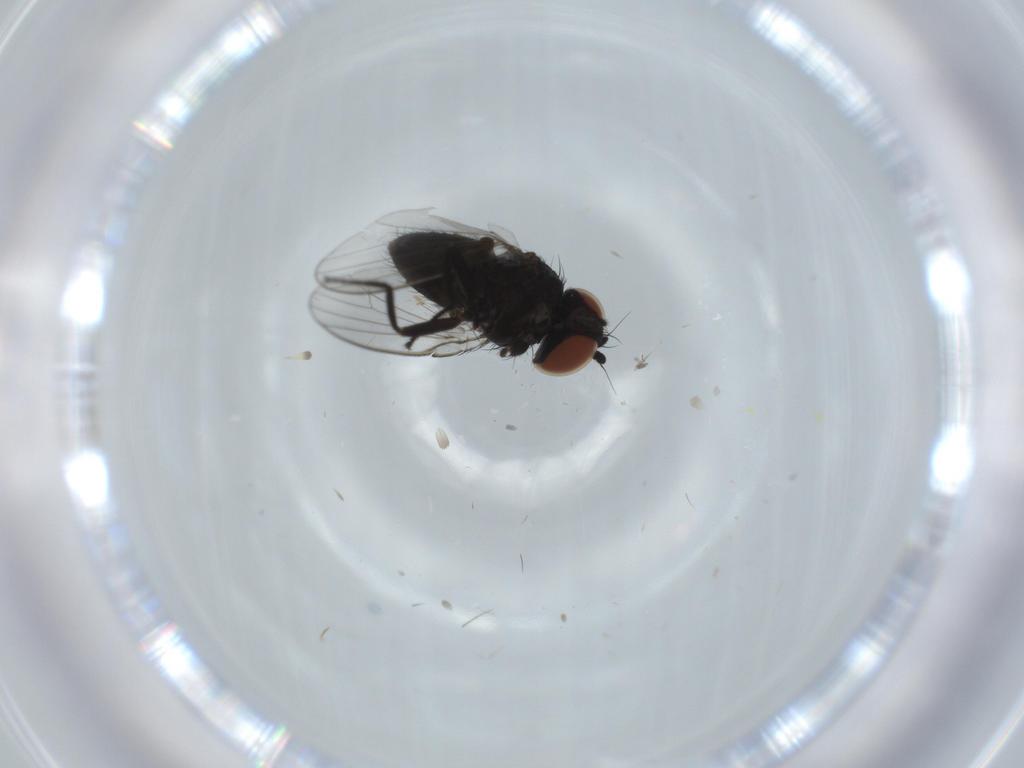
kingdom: Animalia
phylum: Arthropoda
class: Insecta
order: Diptera
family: Milichiidae
